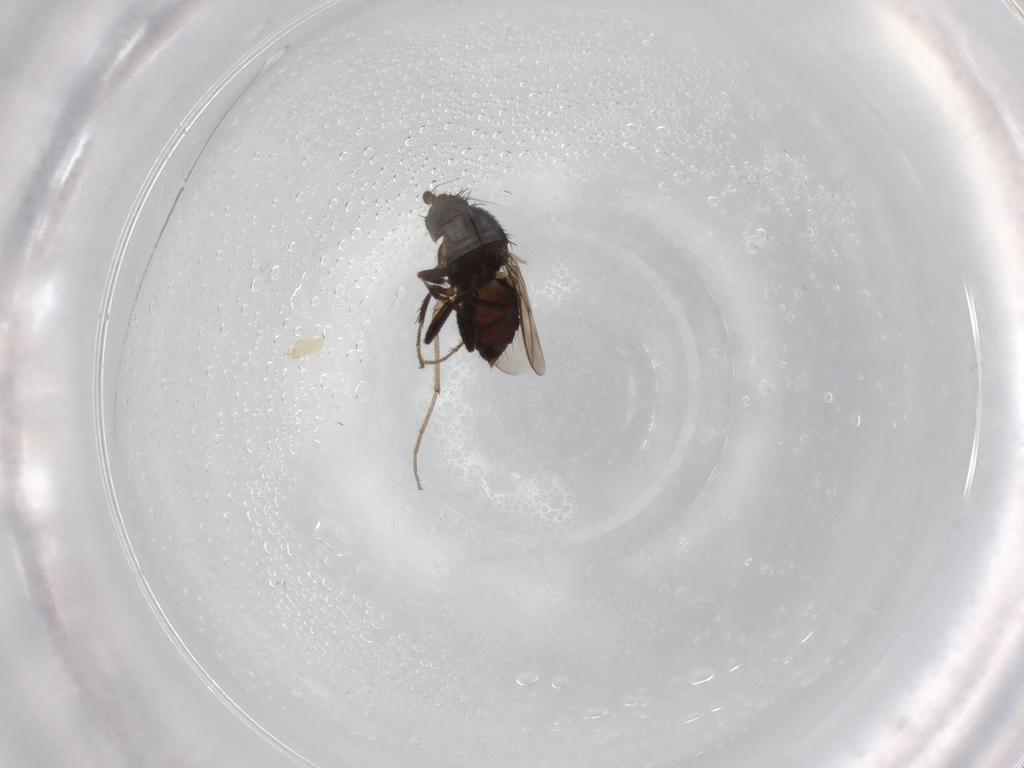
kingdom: Animalia
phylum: Arthropoda
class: Insecta
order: Diptera
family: Sphaeroceridae
